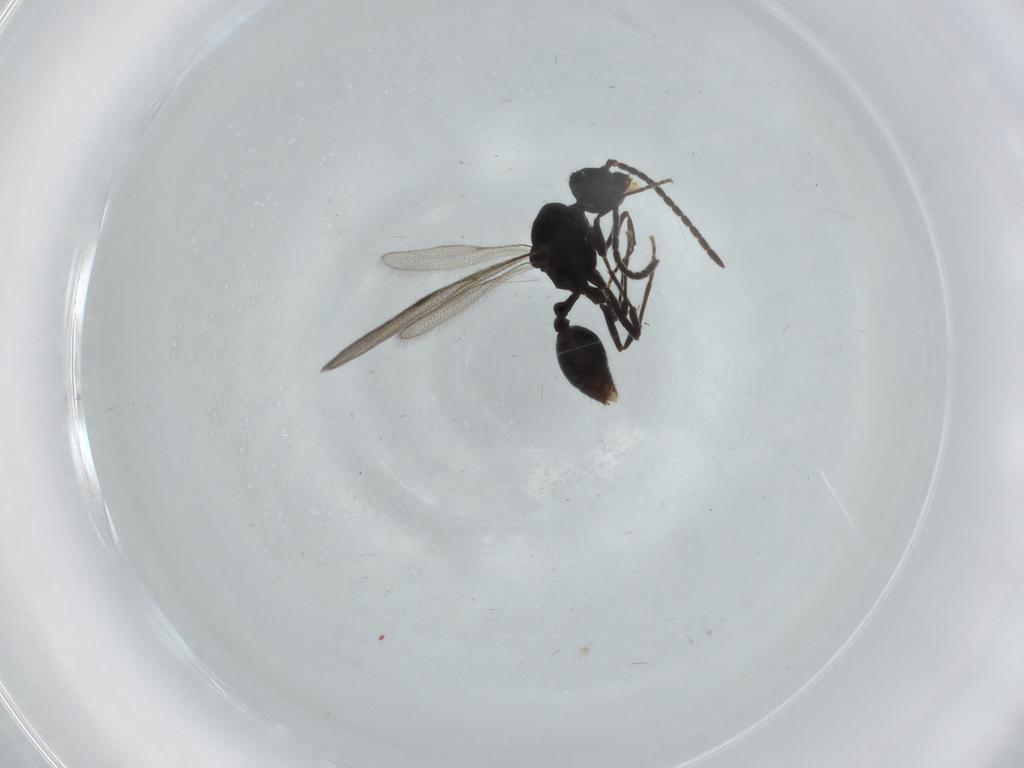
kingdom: Animalia
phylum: Arthropoda
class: Insecta
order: Hymenoptera
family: Formicidae
